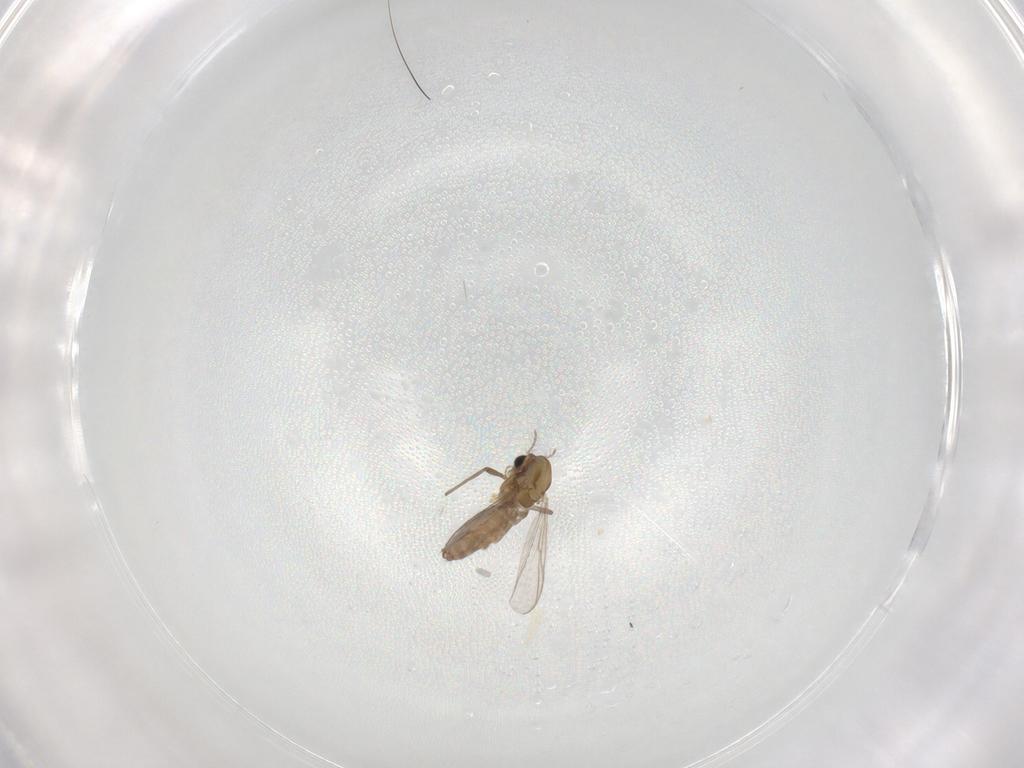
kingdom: Animalia
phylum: Arthropoda
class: Insecta
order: Diptera
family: Chironomidae
